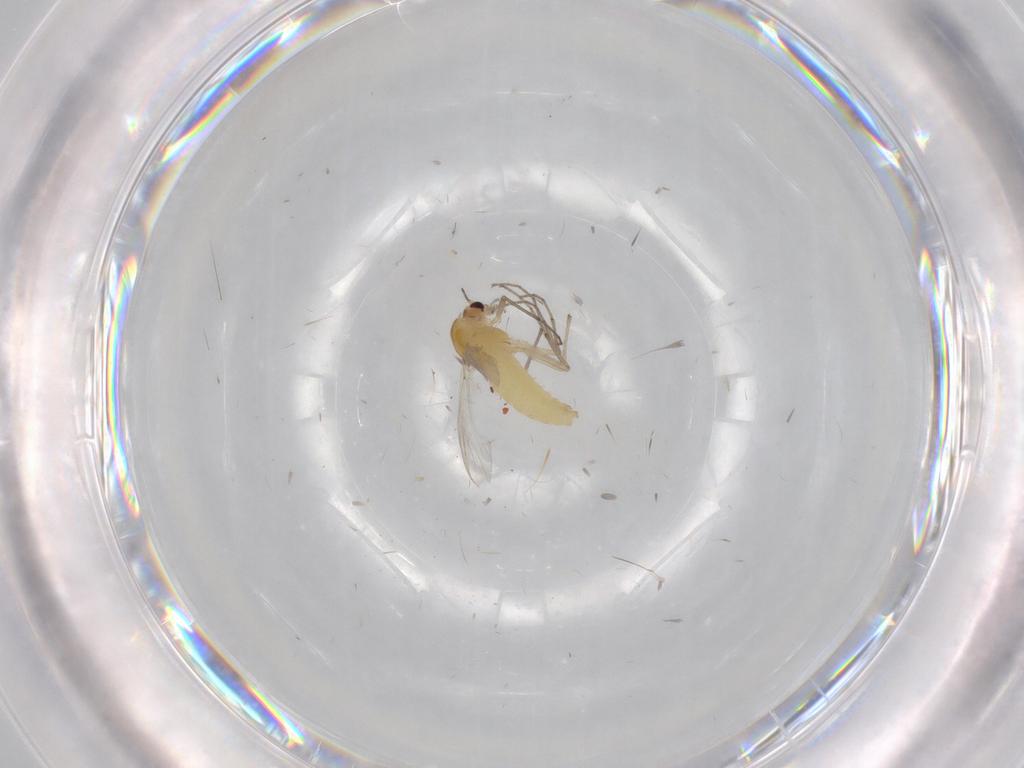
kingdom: Animalia
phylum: Arthropoda
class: Insecta
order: Diptera
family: Chironomidae
